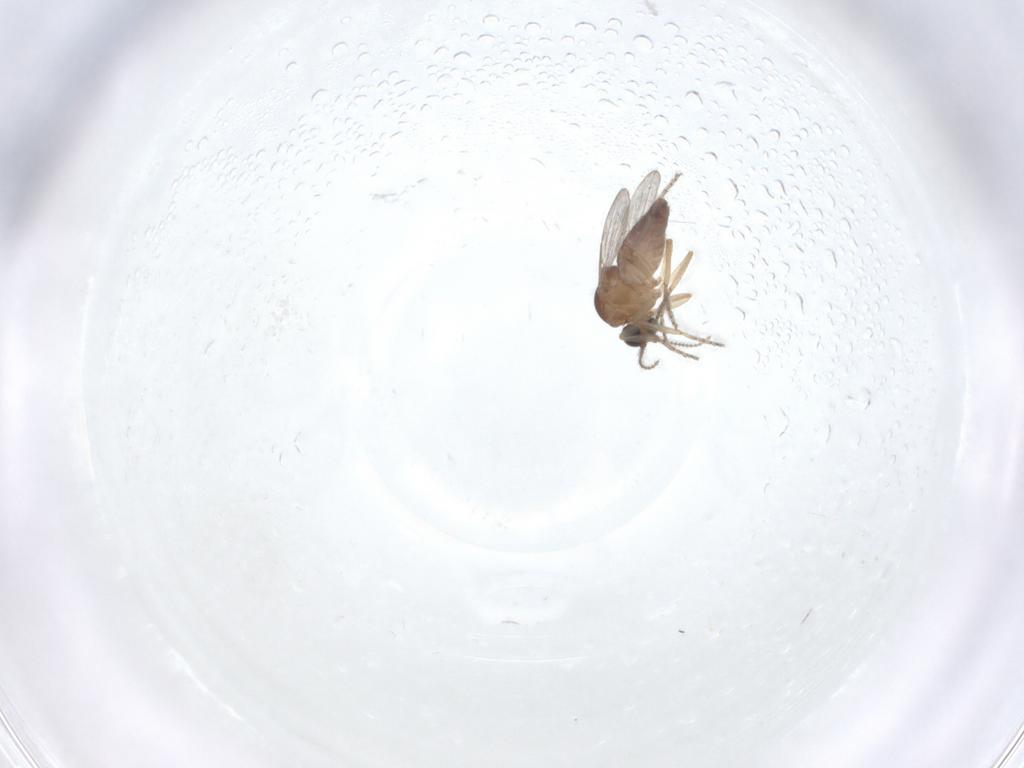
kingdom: Animalia
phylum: Arthropoda
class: Insecta
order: Diptera
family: Ceratopogonidae
